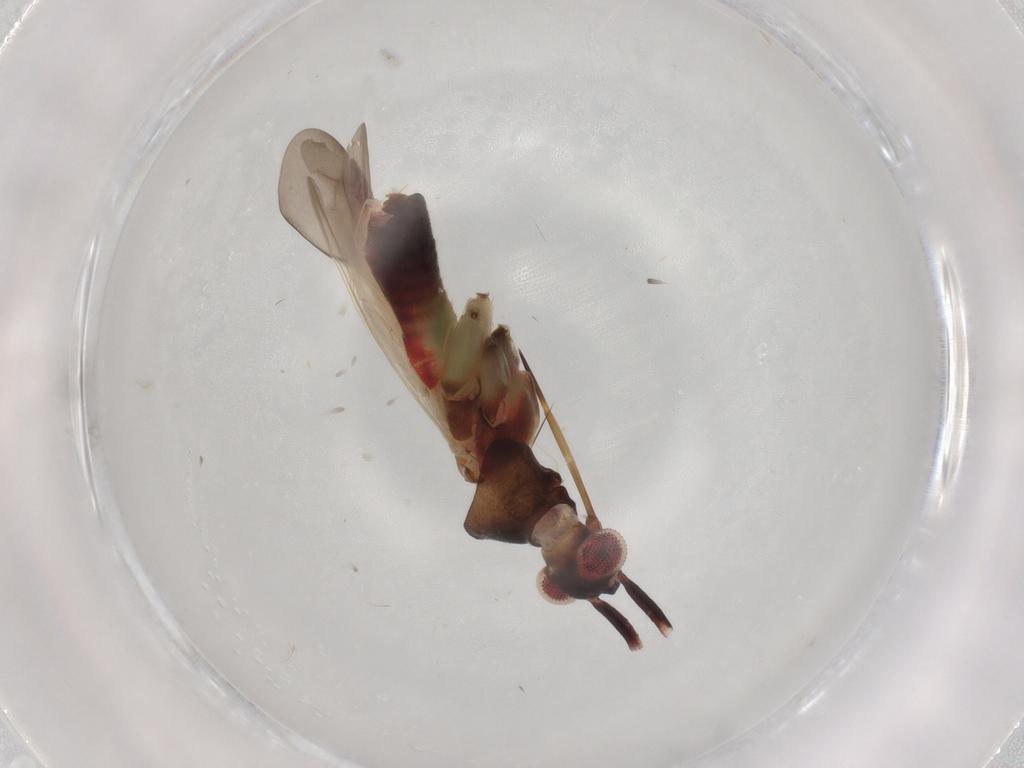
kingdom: Animalia
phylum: Arthropoda
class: Insecta
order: Hemiptera
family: Miridae
